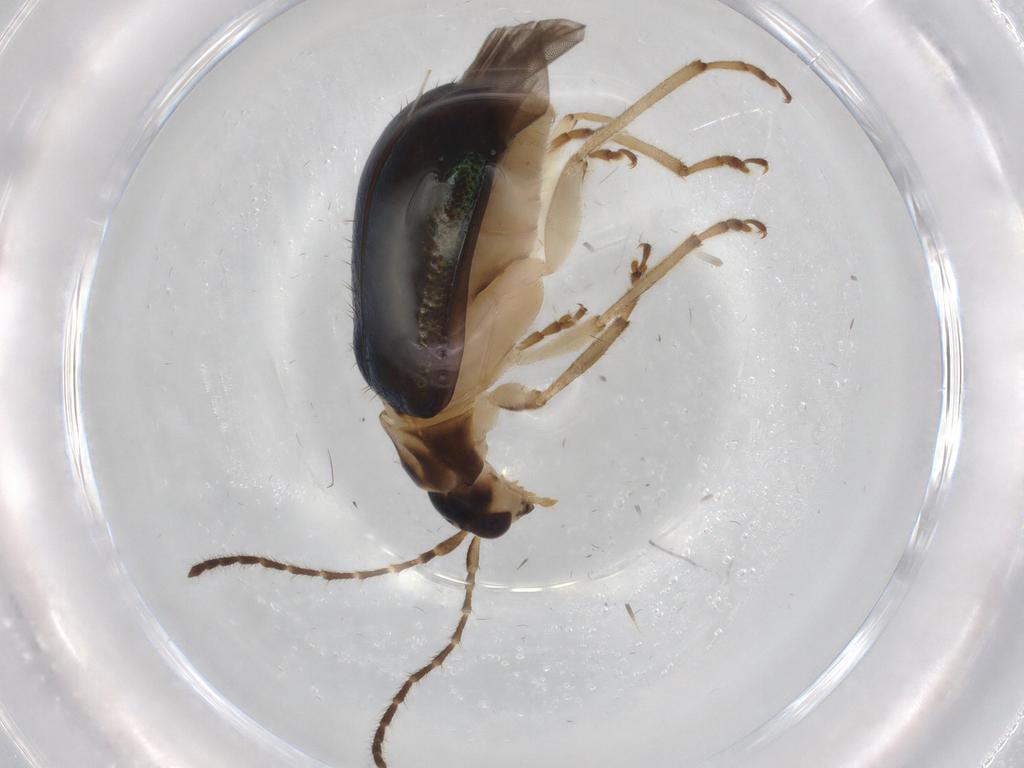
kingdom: Animalia
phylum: Arthropoda
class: Insecta
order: Coleoptera
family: Chrysomelidae
